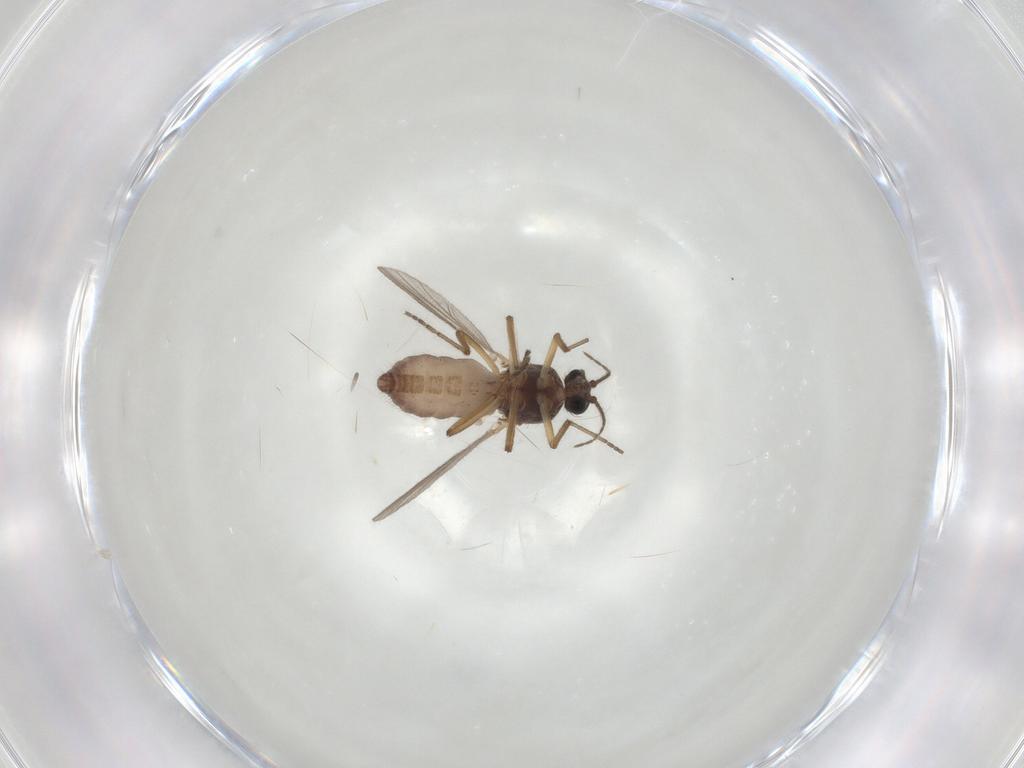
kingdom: Animalia
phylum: Arthropoda
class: Insecta
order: Diptera
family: Ceratopogonidae
